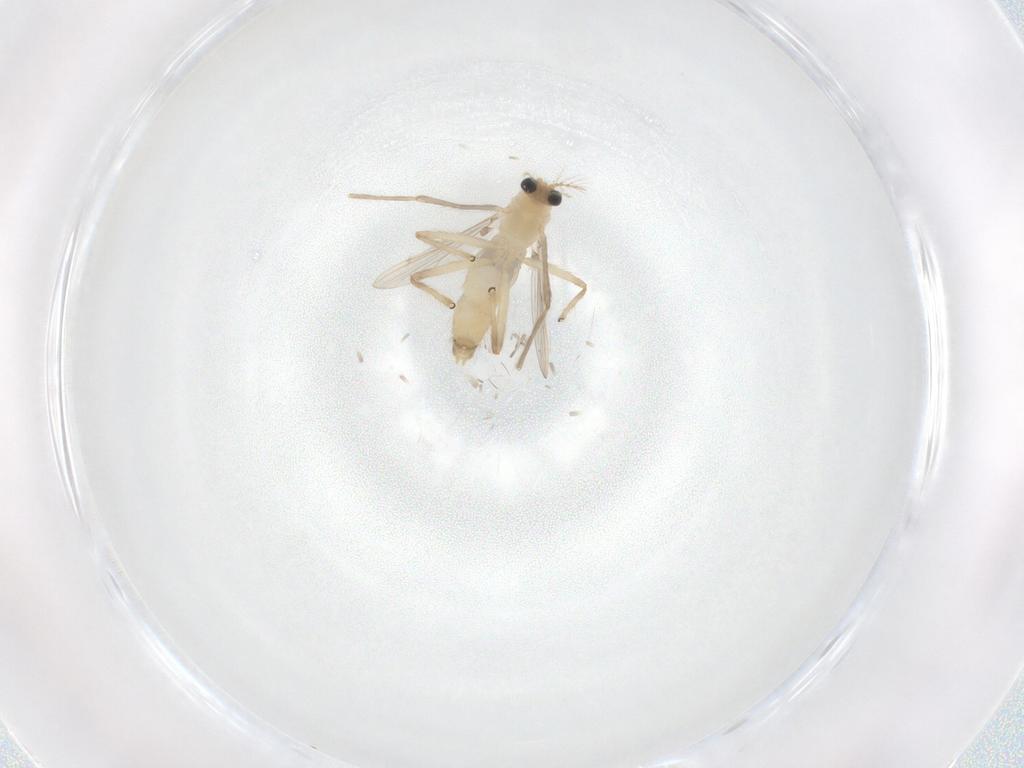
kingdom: Animalia
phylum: Arthropoda
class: Insecta
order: Diptera
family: Chironomidae
